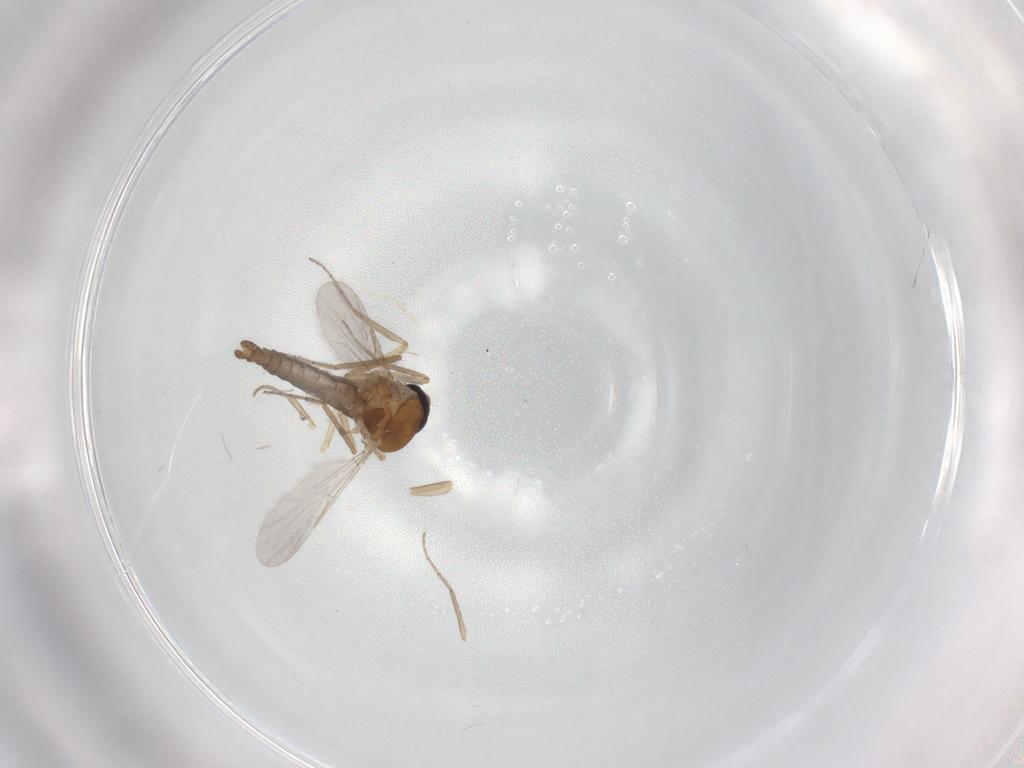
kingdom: Animalia
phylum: Arthropoda
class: Insecta
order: Diptera
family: Ceratopogonidae
